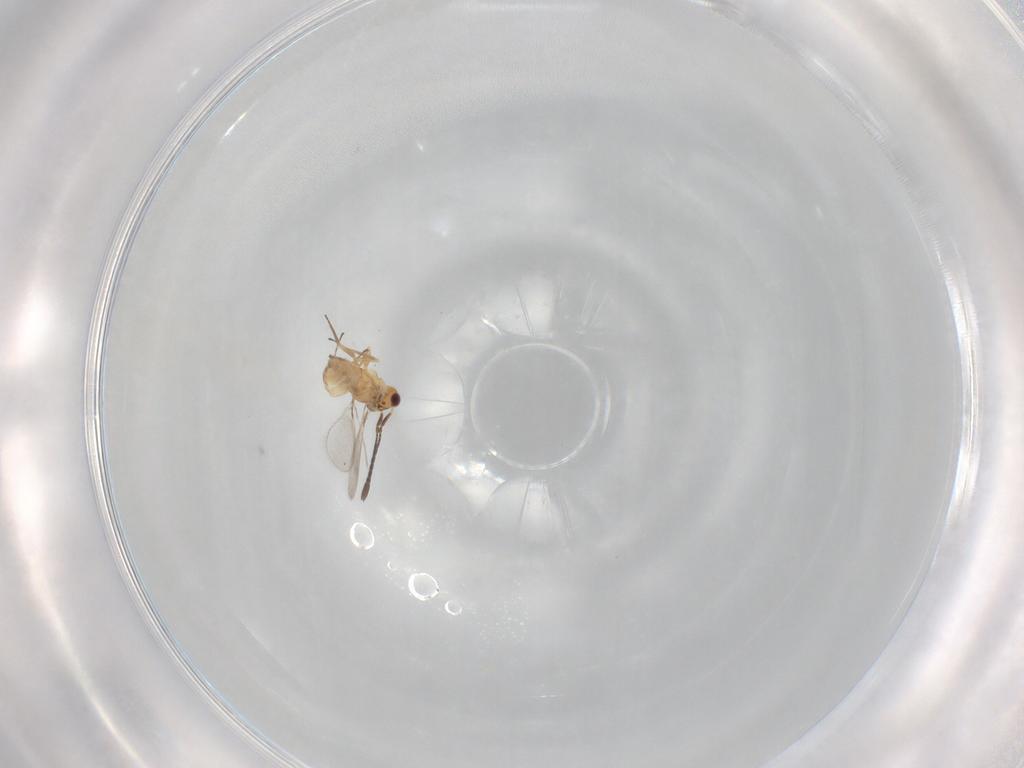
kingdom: Animalia
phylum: Arthropoda
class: Insecta
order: Hymenoptera
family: Mymaridae
